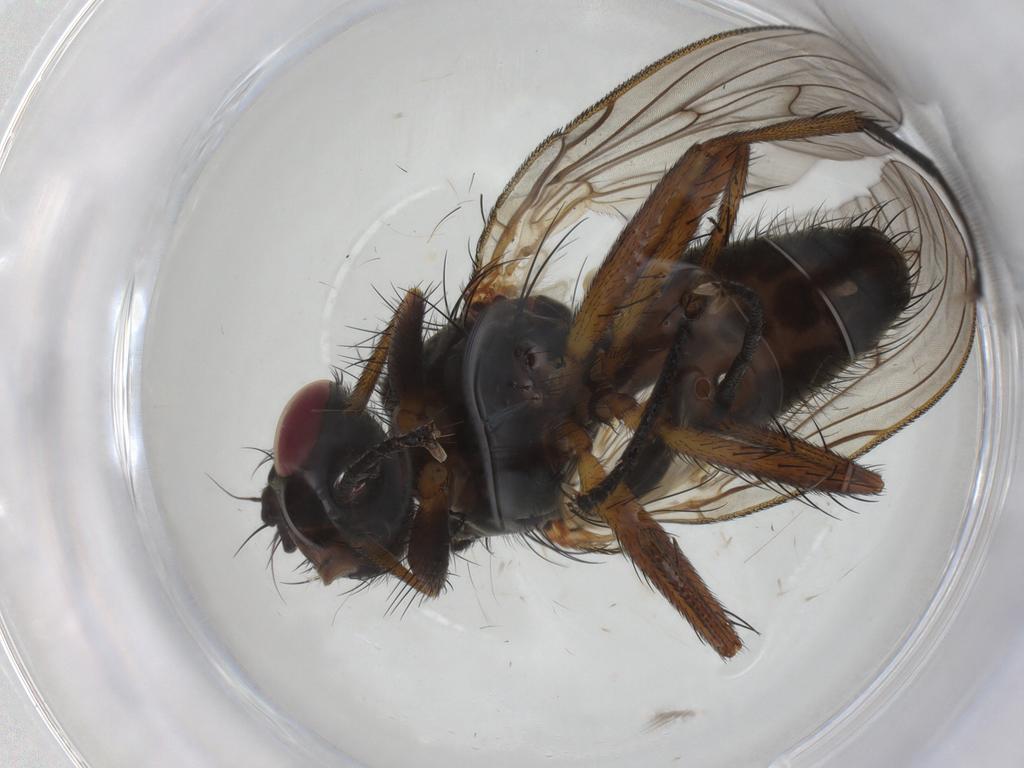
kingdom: Animalia
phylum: Arthropoda
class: Insecta
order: Diptera
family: Anthomyiidae
